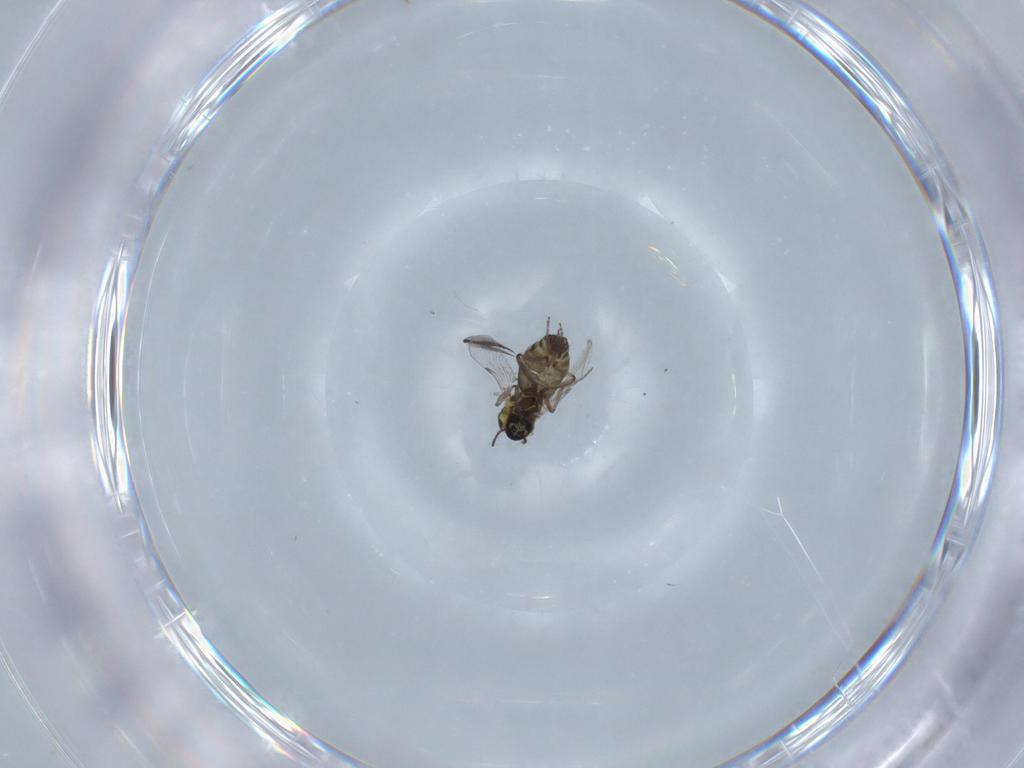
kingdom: Animalia
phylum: Arthropoda
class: Insecta
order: Diptera
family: Ceratopogonidae
